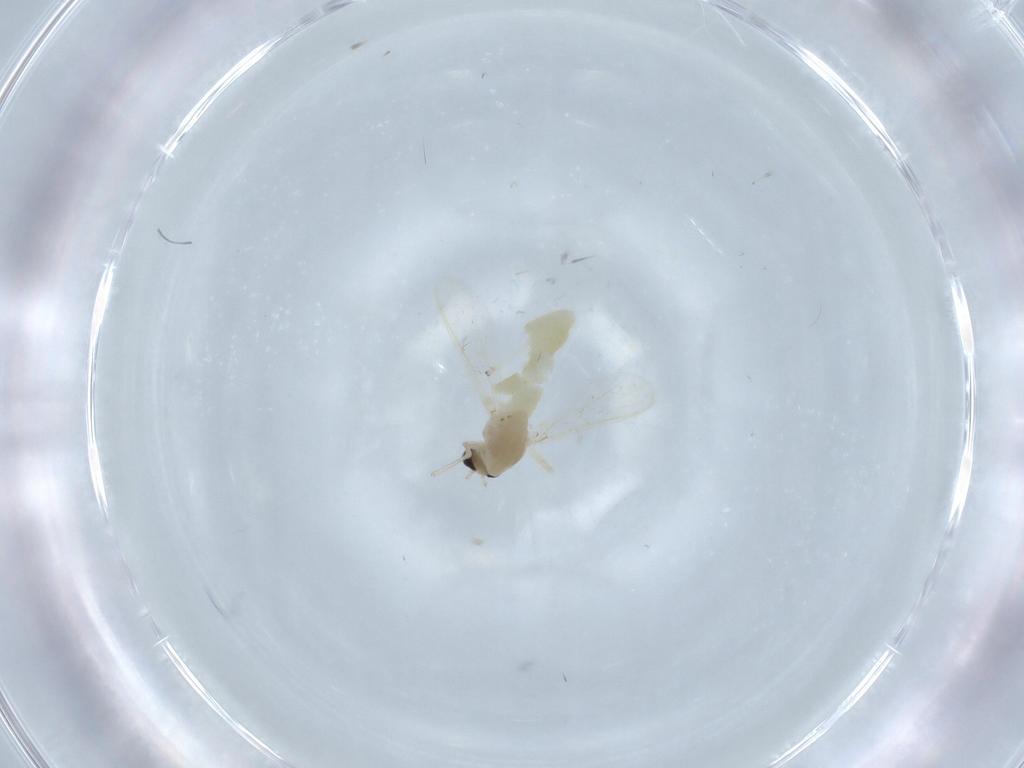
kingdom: Animalia
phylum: Arthropoda
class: Insecta
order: Diptera
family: Chironomidae
